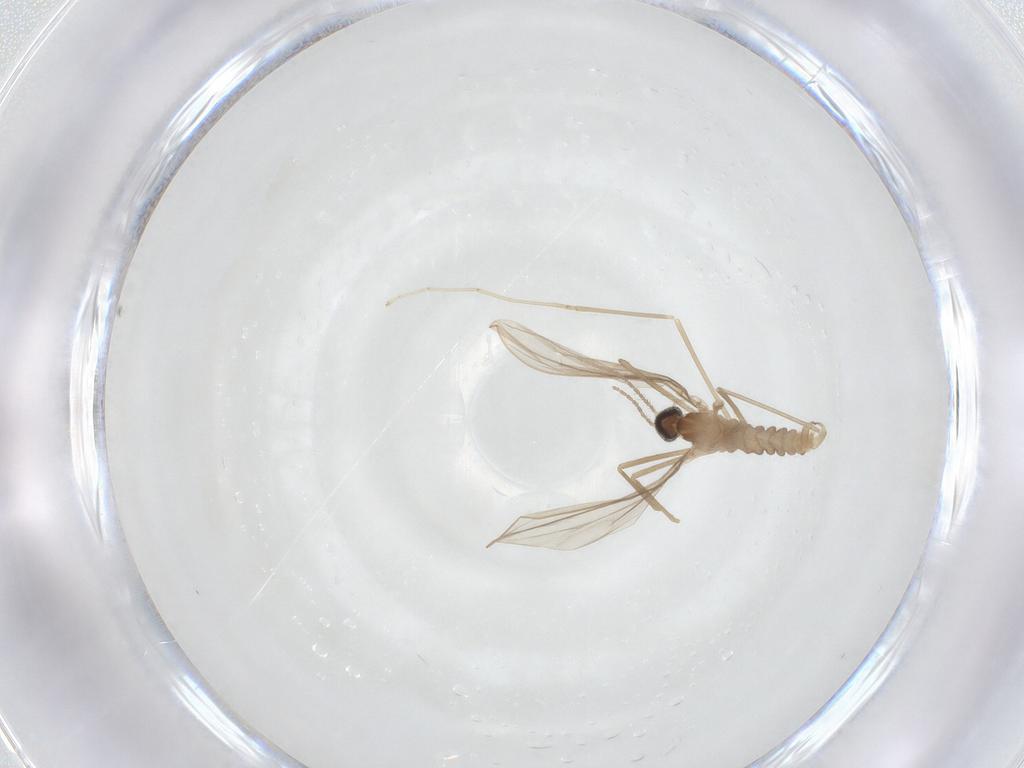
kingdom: Animalia
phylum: Arthropoda
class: Insecta
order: Diptera
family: Cecidomyiidae
